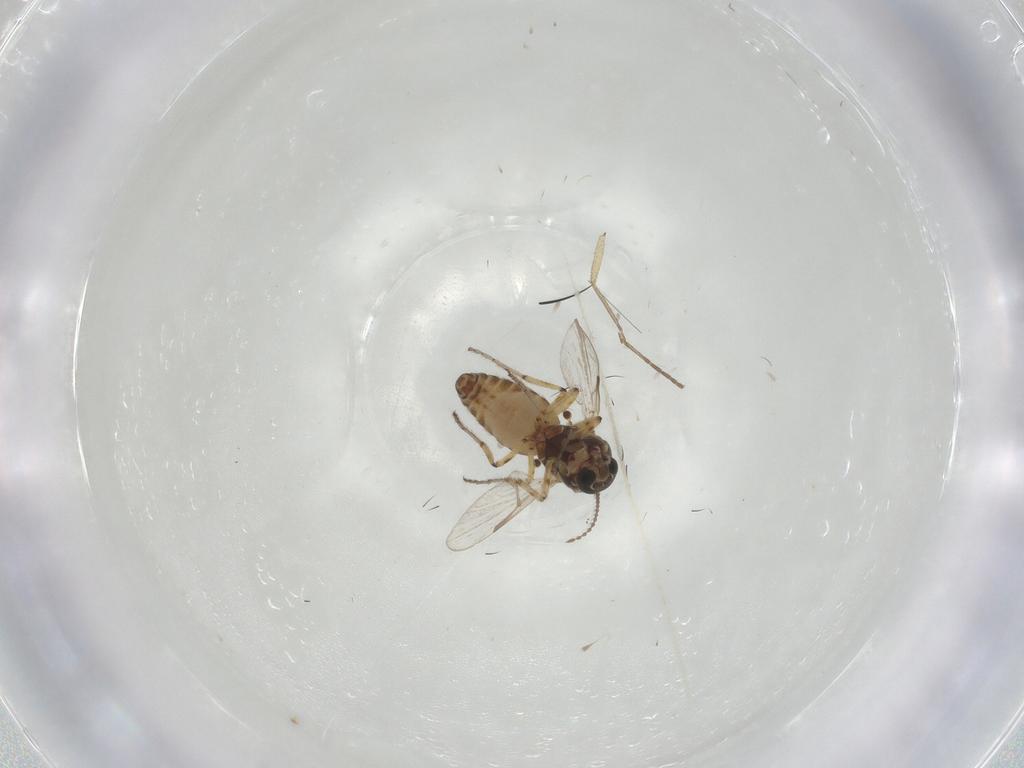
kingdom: Animalia
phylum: Arthropoda
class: Insecta
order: Diptera
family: Ceratopogonidae
